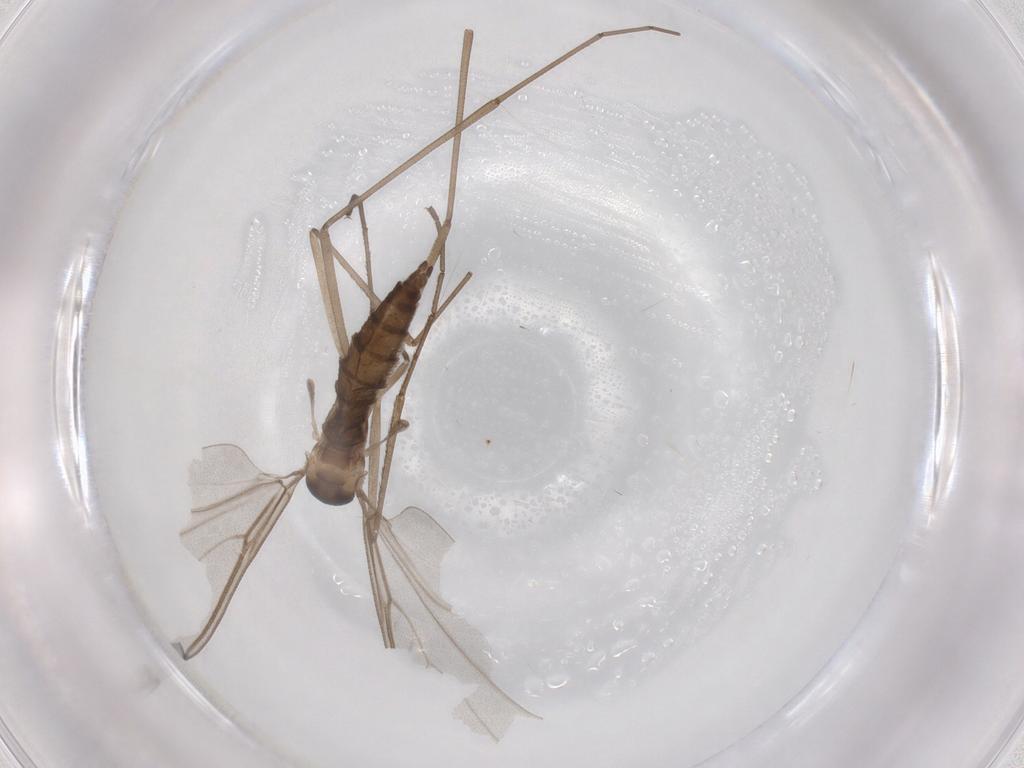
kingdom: Animalia
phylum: Arthropoda
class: Insecta
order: Diptera
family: Cecidomyiidae
